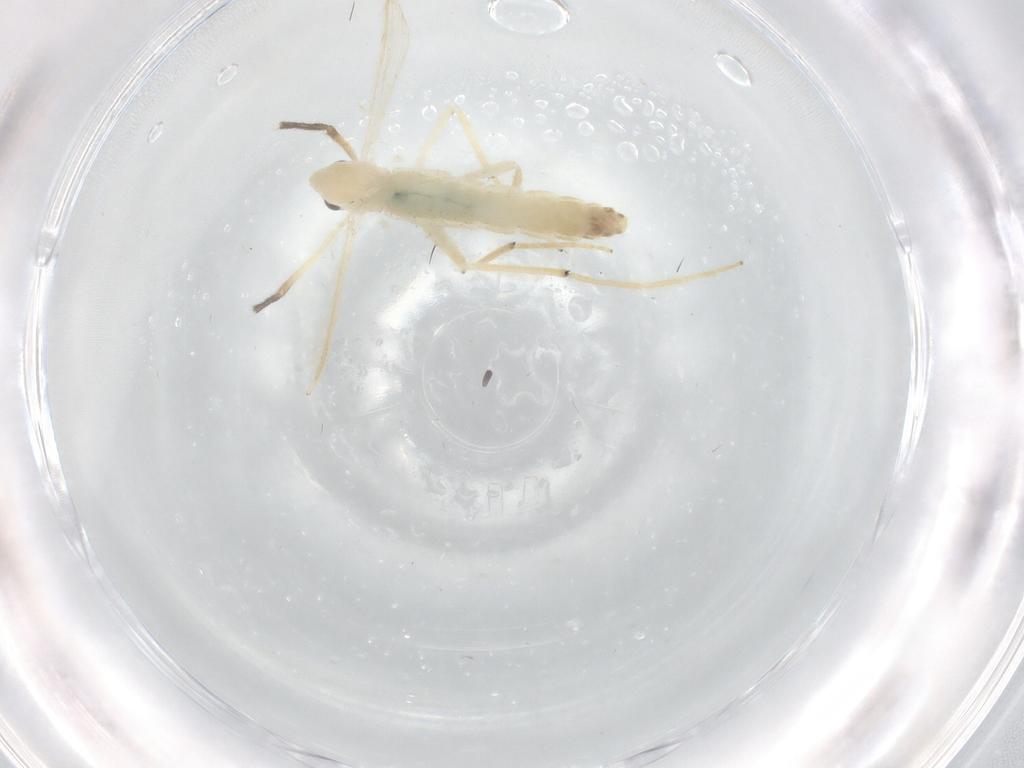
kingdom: Animalia
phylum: Arthropoda
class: Insecta
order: Diptera
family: Chironomidae
